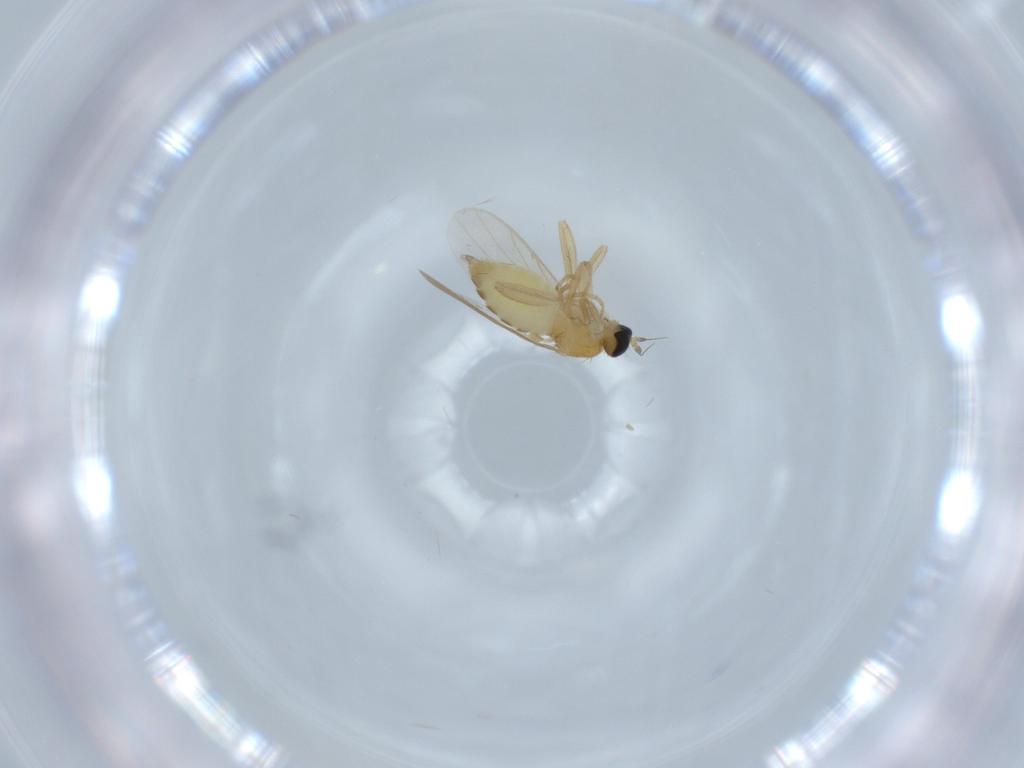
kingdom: Animalia
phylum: Arthropoda
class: Insecta
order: Diptera
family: Hybotidae
